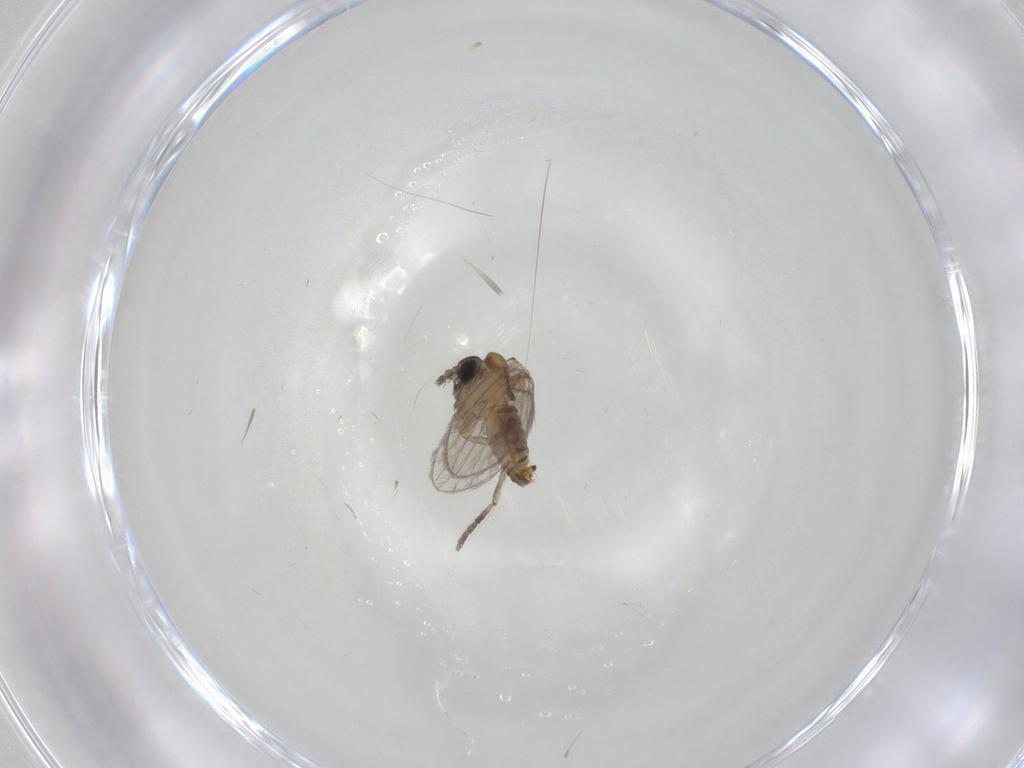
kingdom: Animalia
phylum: Arthropoda
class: Insecta
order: Diptera
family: Psychodidae
